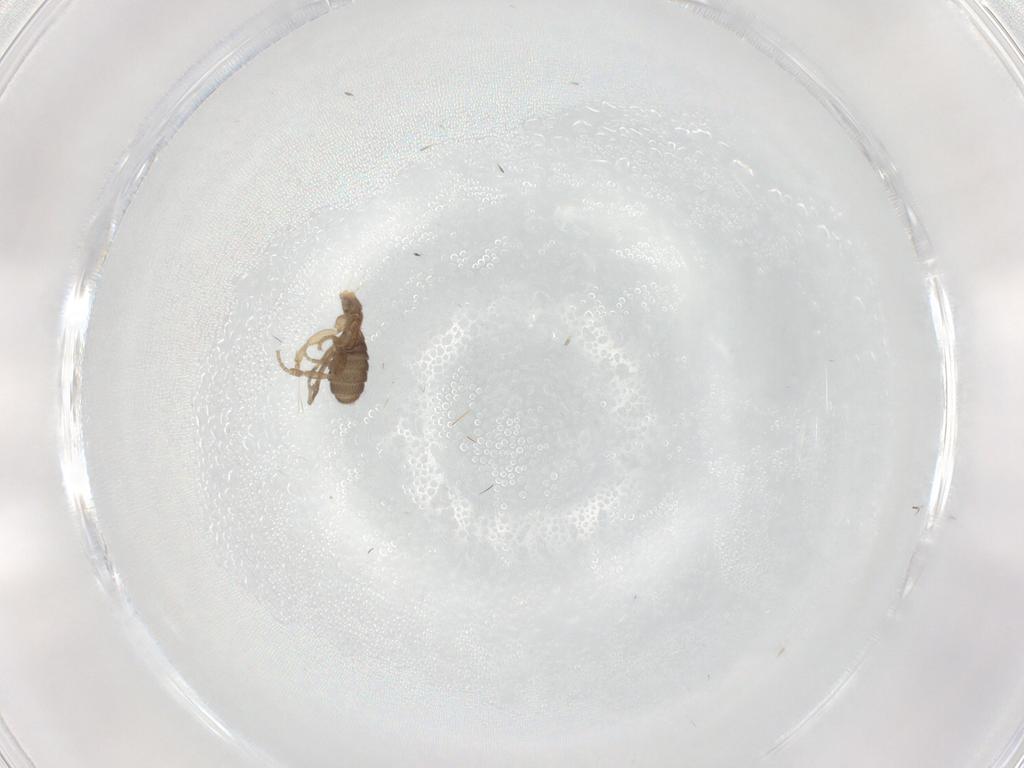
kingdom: Animalia
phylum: Arthropoda
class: Insecta
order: Diptera
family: Chironomidae
